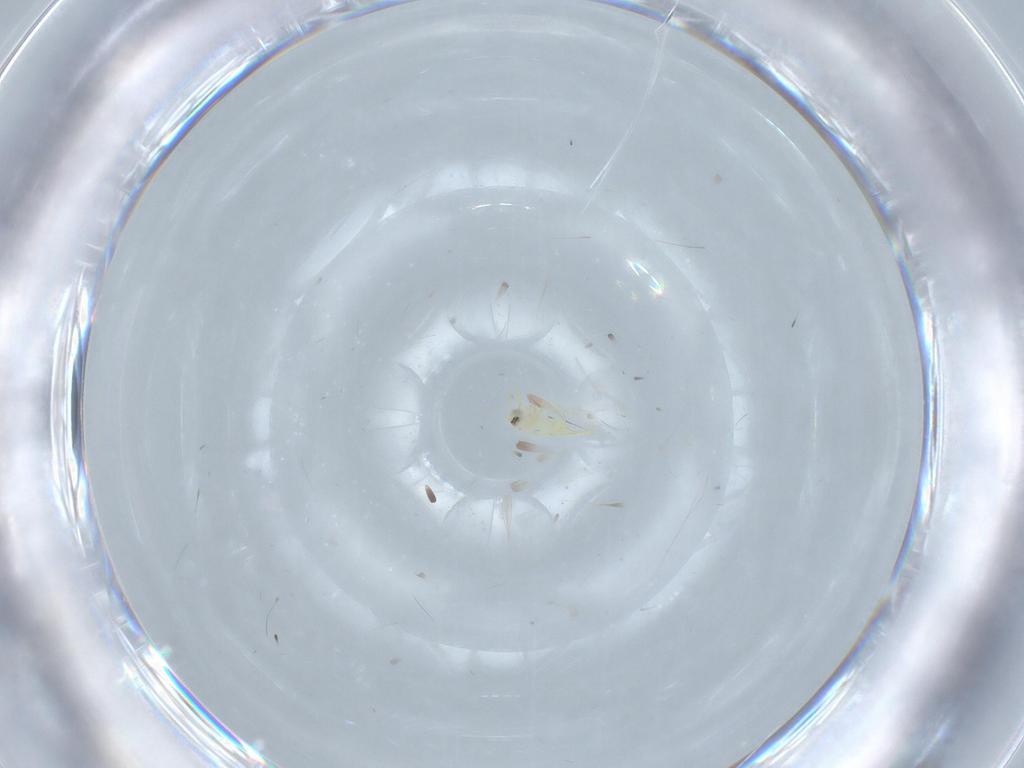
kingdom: Animalia
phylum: Arthropoda
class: Insecta
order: Hemiptera
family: Aleyrodidae
